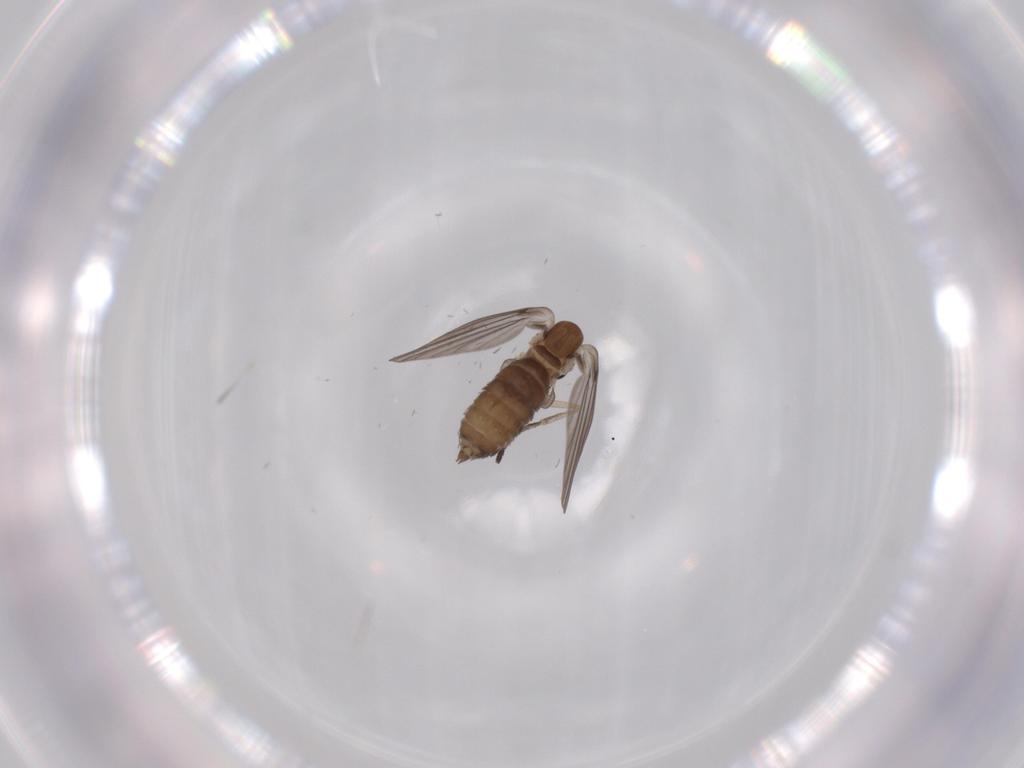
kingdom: Animalia
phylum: Arthropoda
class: Insecta
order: Diptera
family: Psychodidae
